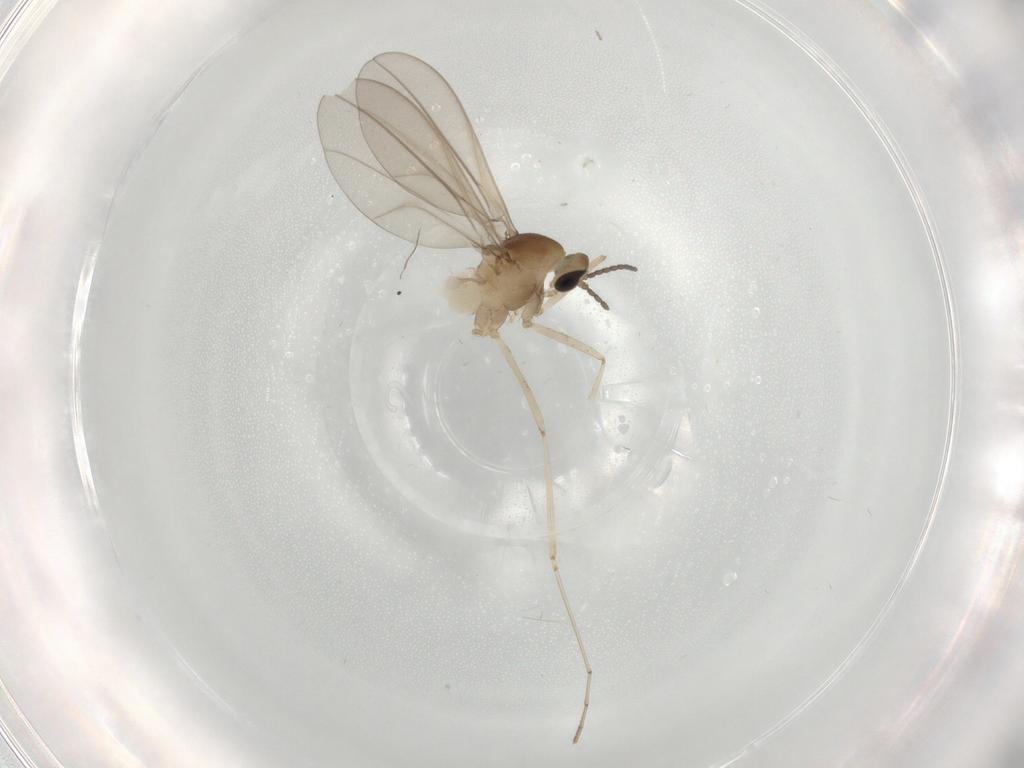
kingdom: Animalia
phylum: Arthropoda
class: Insecta
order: Diptera
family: Cecidomyiidae
